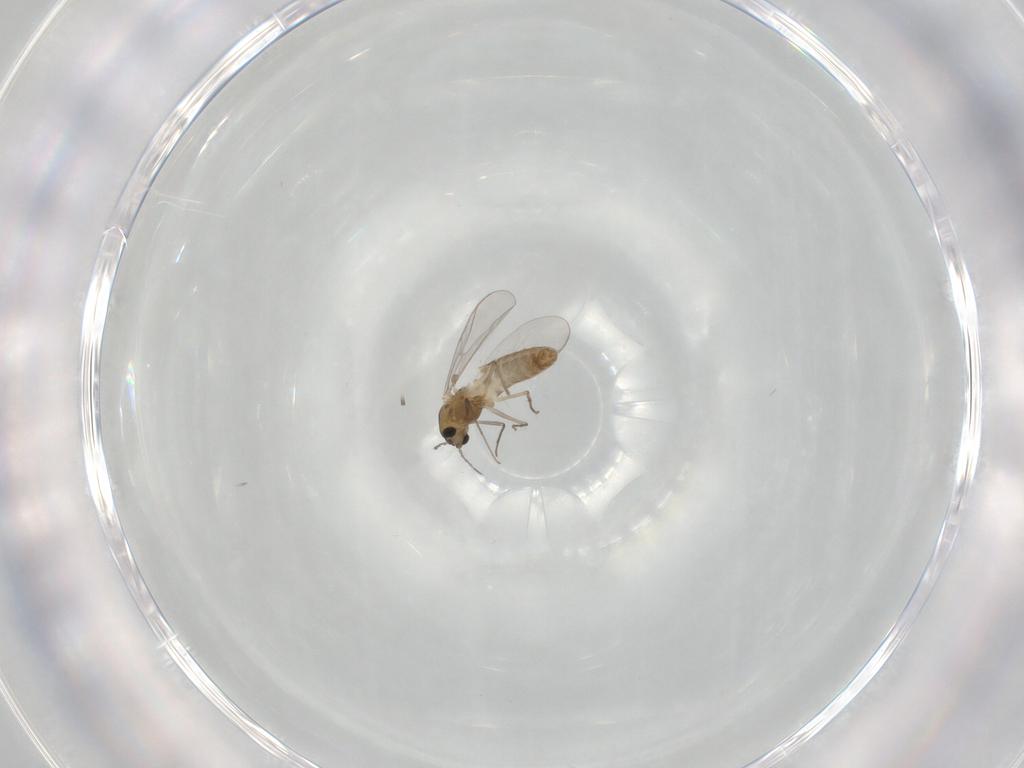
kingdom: Animalia
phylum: Arthropoda
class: Insecta
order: Diptera
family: Chironomidae
